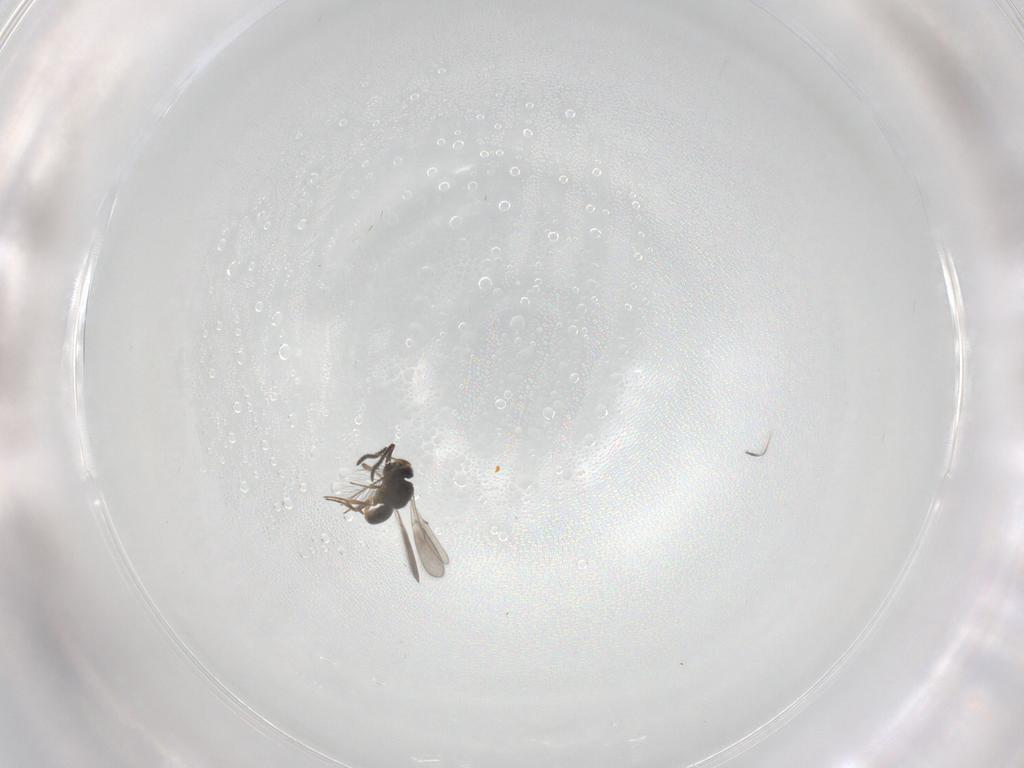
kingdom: Animalia
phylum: Arthropoda
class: Insecta
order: Hymenoptera
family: Scelionidae
